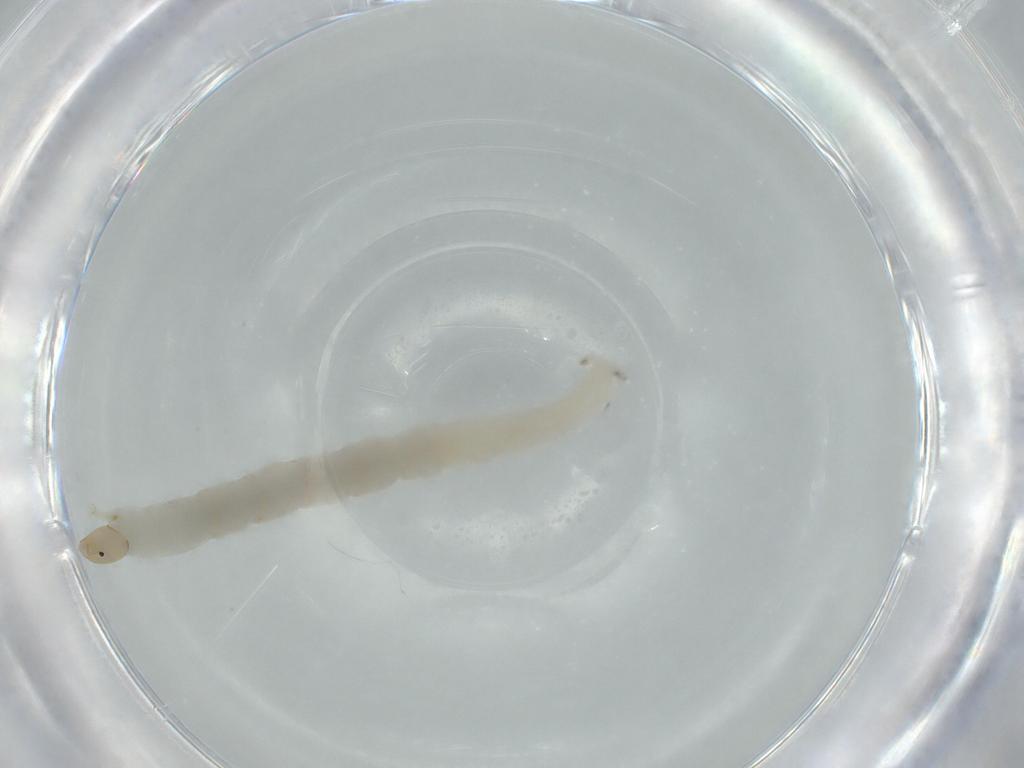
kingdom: Animalia
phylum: Arthropoda
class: Insecta
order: Diptera
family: Chironomidae
